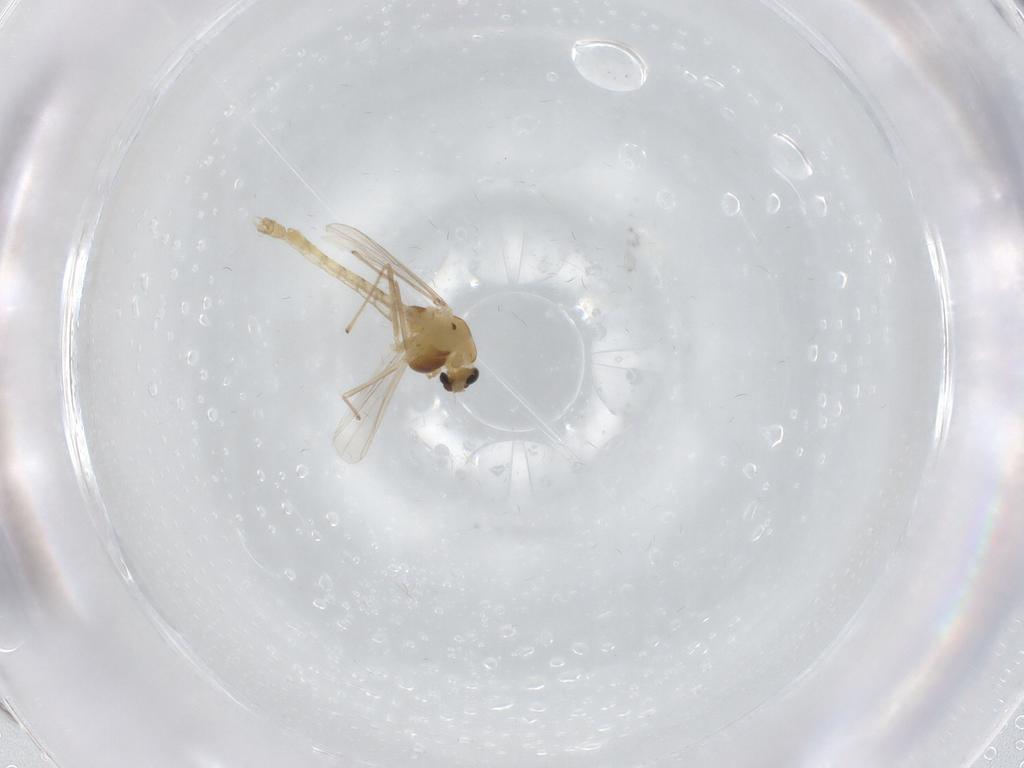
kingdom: Animalia
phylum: Arthropoda
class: Insecta
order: Diptera
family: Chironomidae
